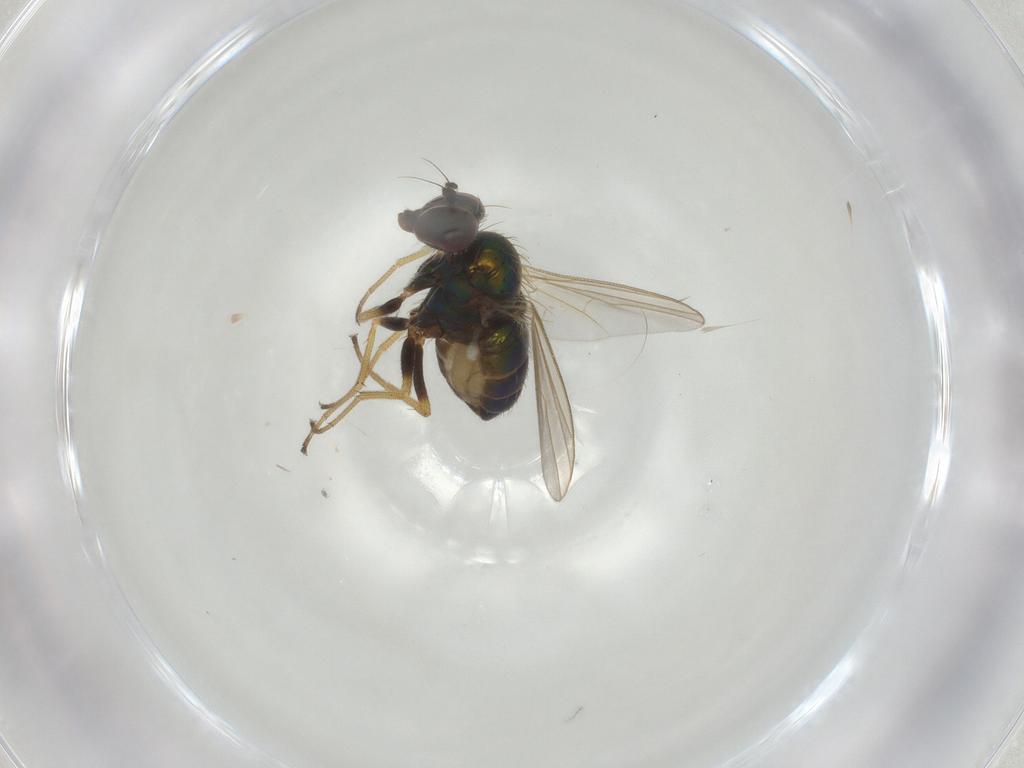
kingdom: Animalia
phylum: Arthropoda
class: Insecta
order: Diptera
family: Dolichopodidae
